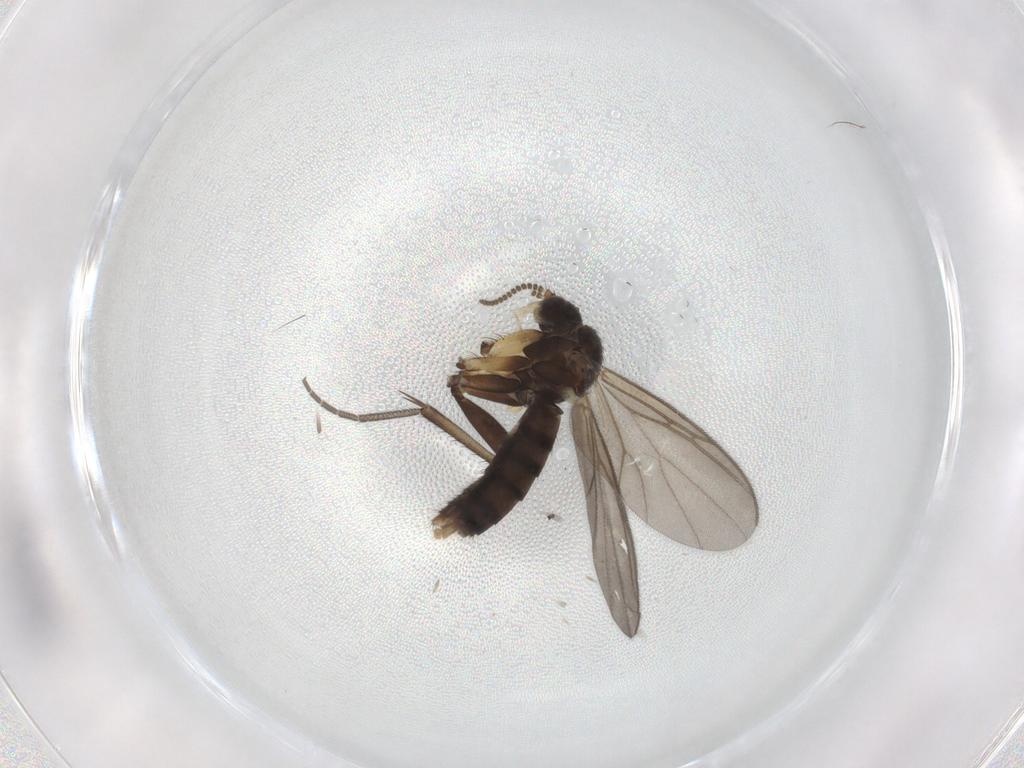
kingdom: Animalia
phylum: Arthropoda
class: Insecta
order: Diptera
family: Mycetophilidae
